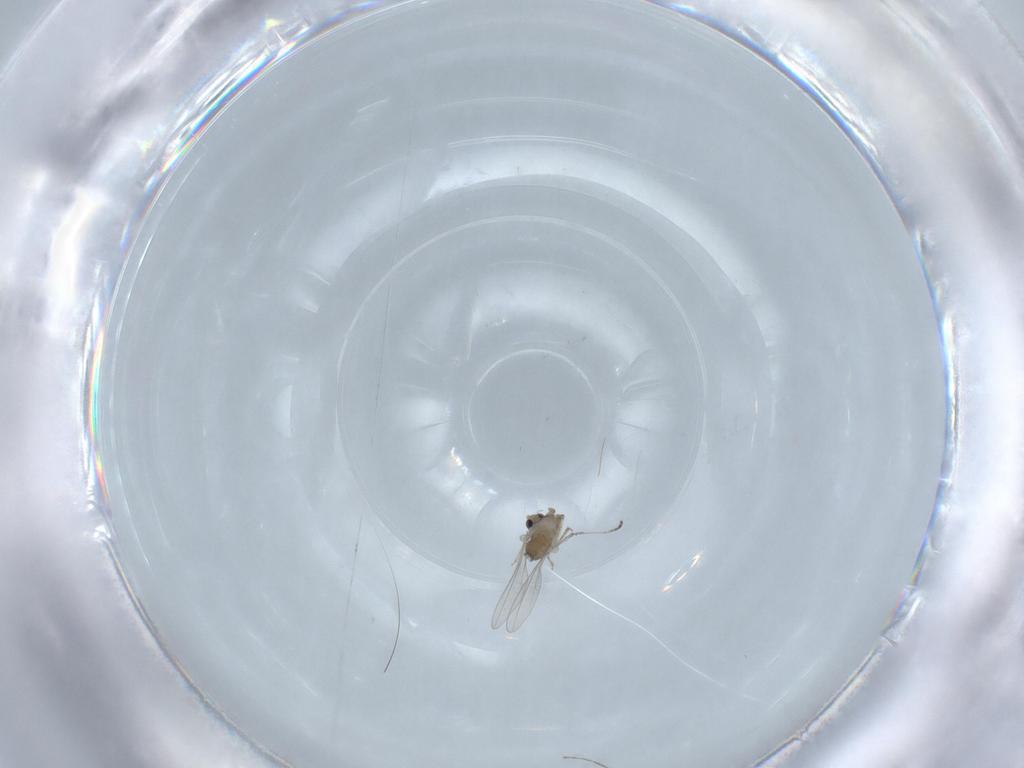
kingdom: Animalia
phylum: Arthropoda
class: Insecta
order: Diptera
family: Cecidomyiidae
